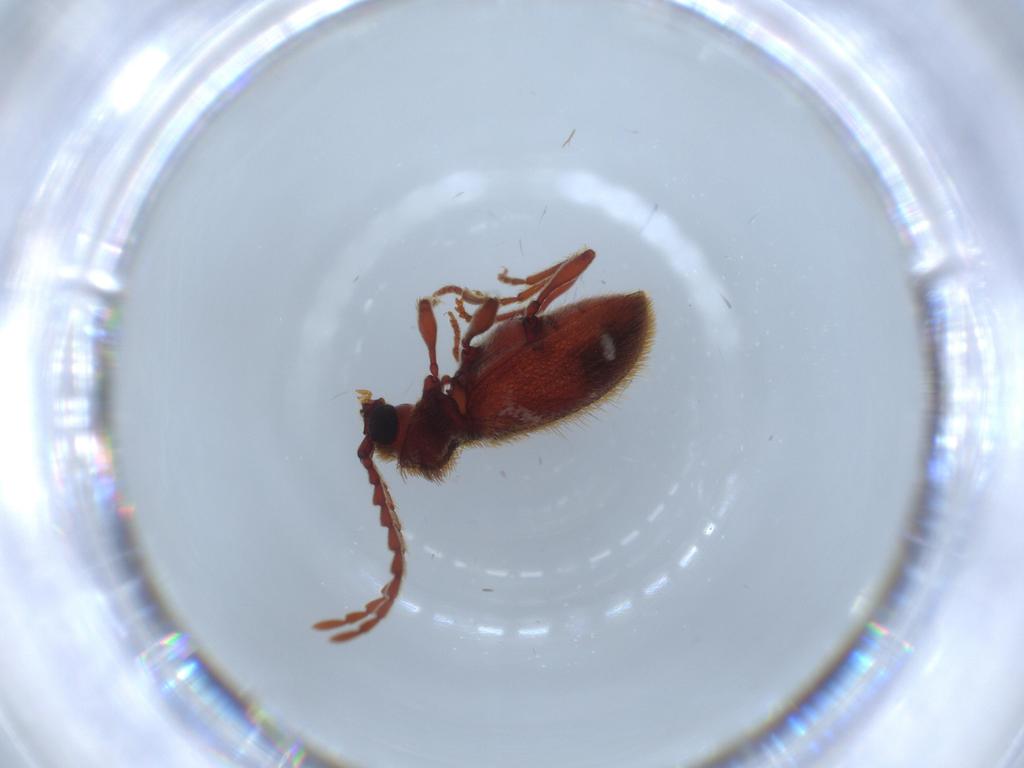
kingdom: Animalia
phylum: Arthropoda
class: Insecta
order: Coleoptera
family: Ptinidae
